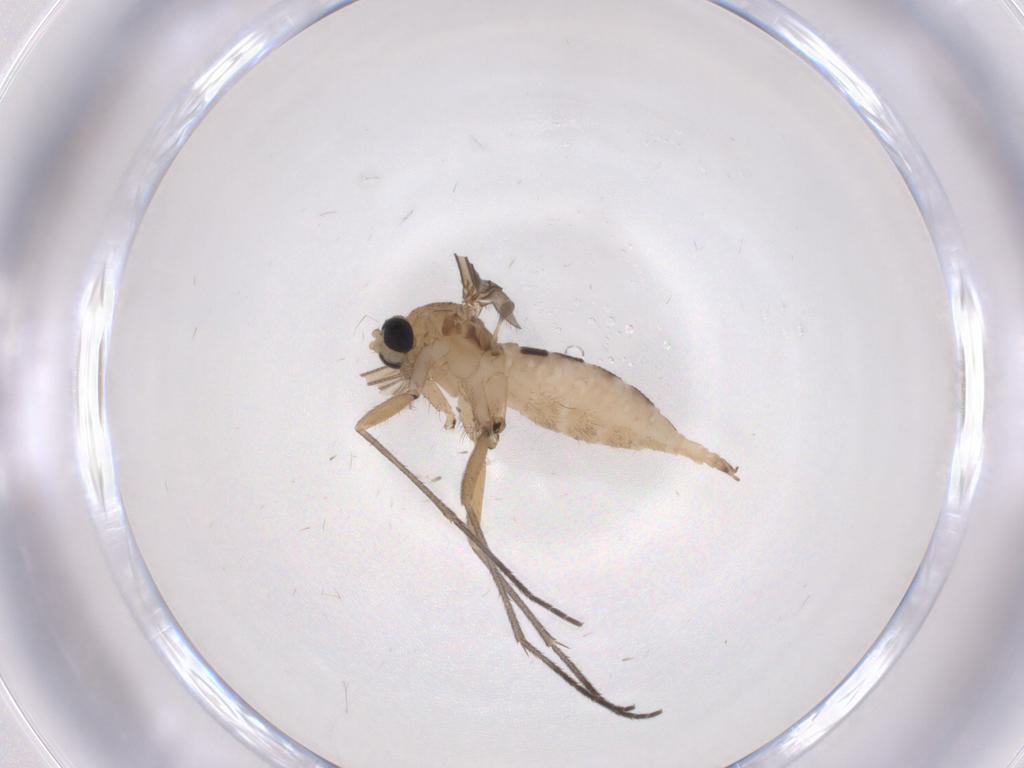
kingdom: Animalia
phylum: Arthropoda
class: Insecta
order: Diptera
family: Sciaridae
